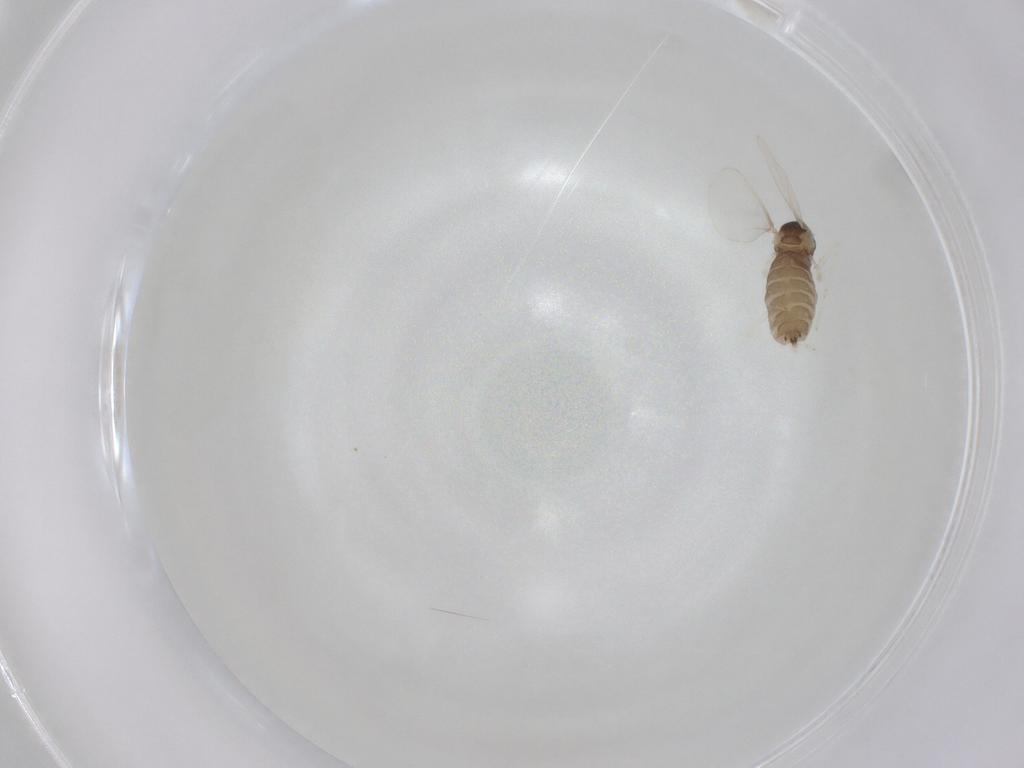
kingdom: Animalia
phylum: Arthropoda
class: Insecta
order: Diptera
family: Cecidomyiidae
